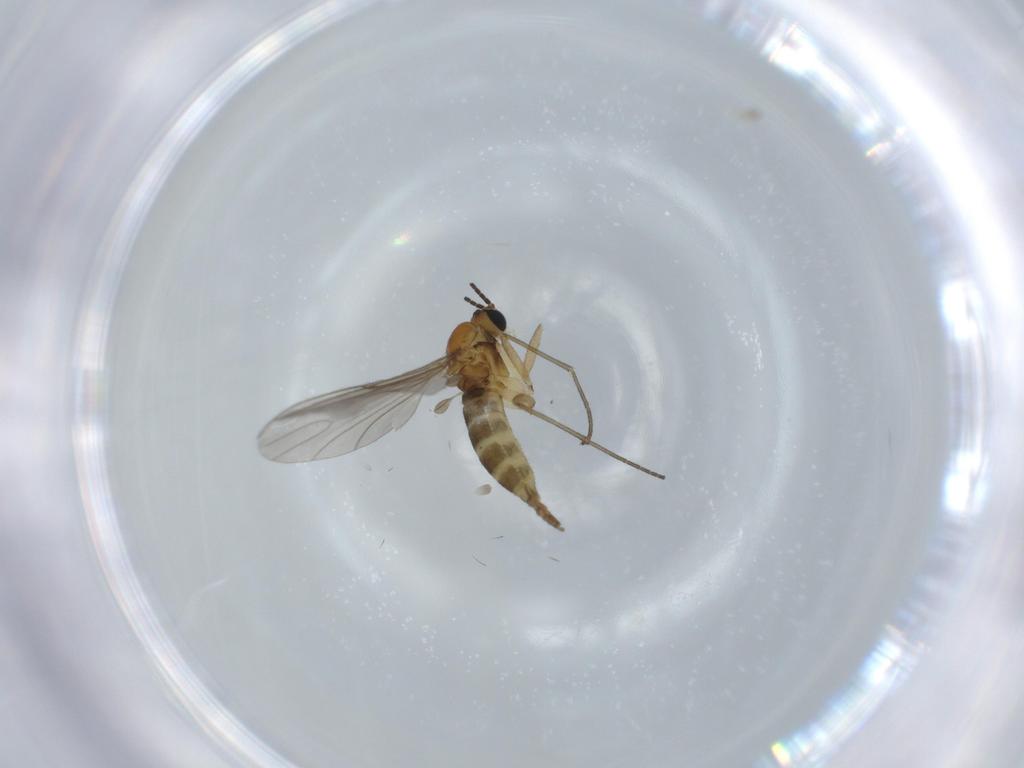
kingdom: Animalia
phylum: Arthropoda
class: Insecta
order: Diptera
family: Sciaridae
